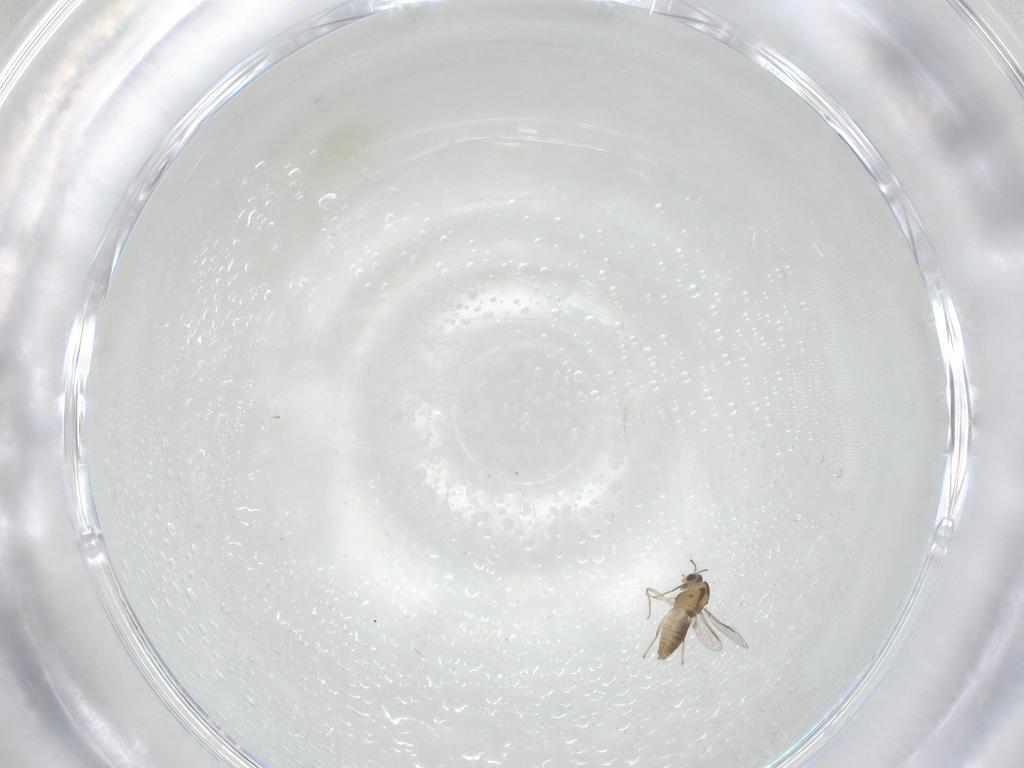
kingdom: Animalia
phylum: Arthropoda
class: Insecta
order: Diptera
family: Chironomidae
